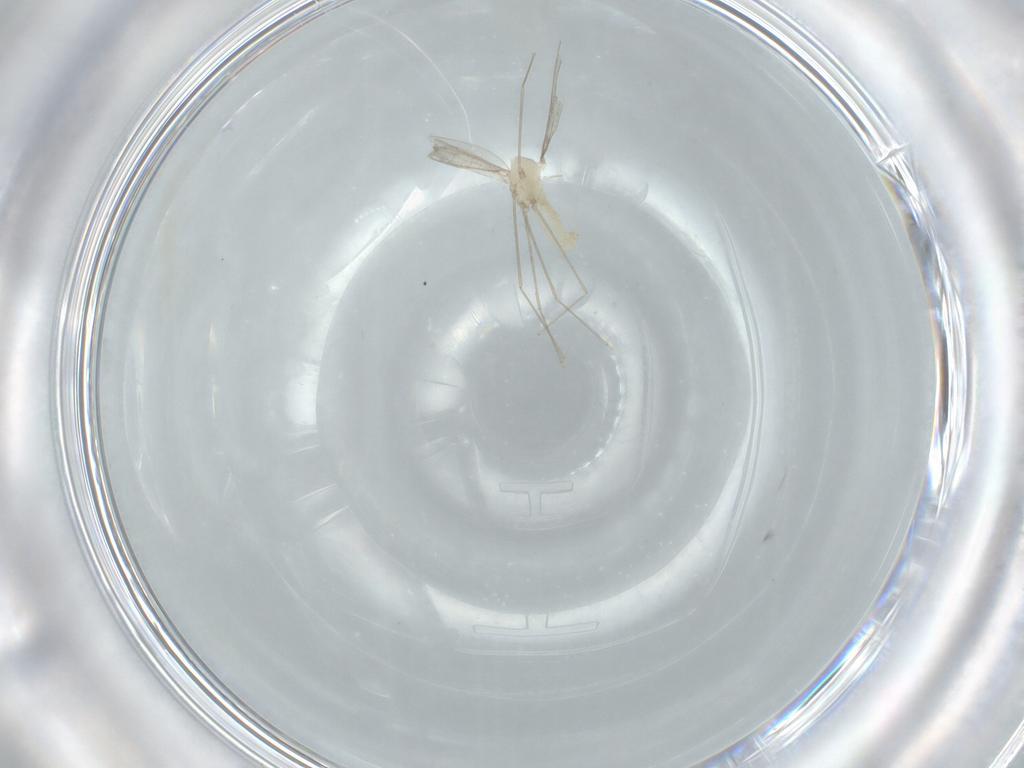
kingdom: Animalia
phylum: Arthropoda
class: Insecta
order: Diptera
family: Cecidomyiidae
